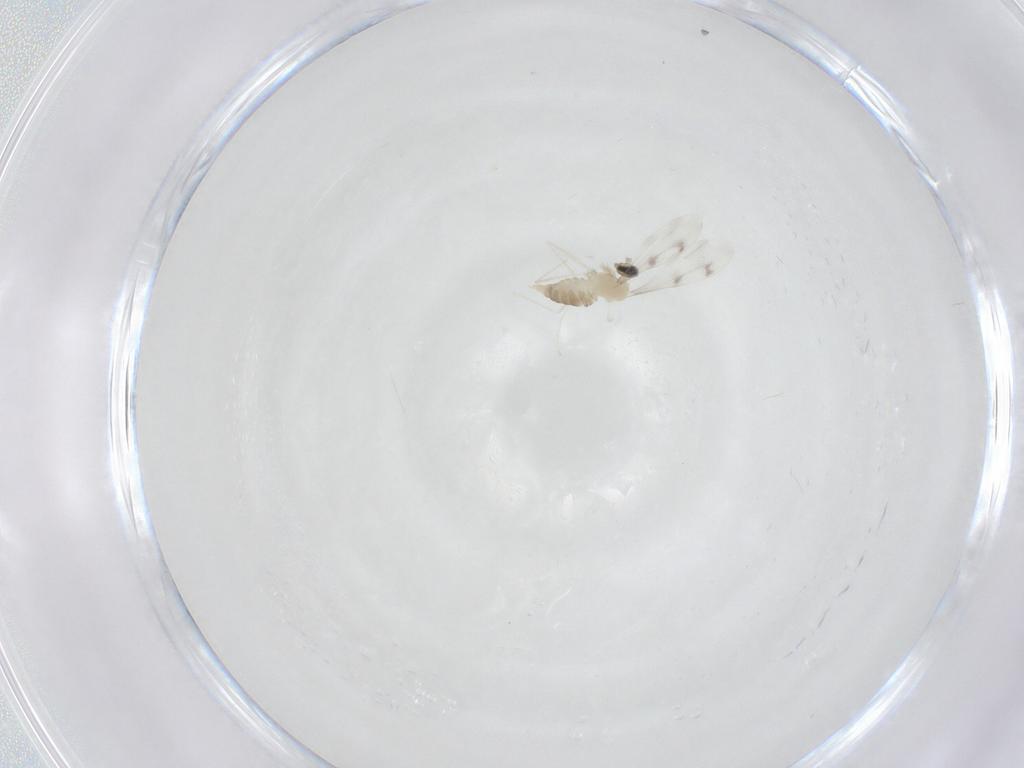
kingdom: Animalia
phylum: Arthropoda
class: Insecta
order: Diptera
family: Cecidomyiidae
